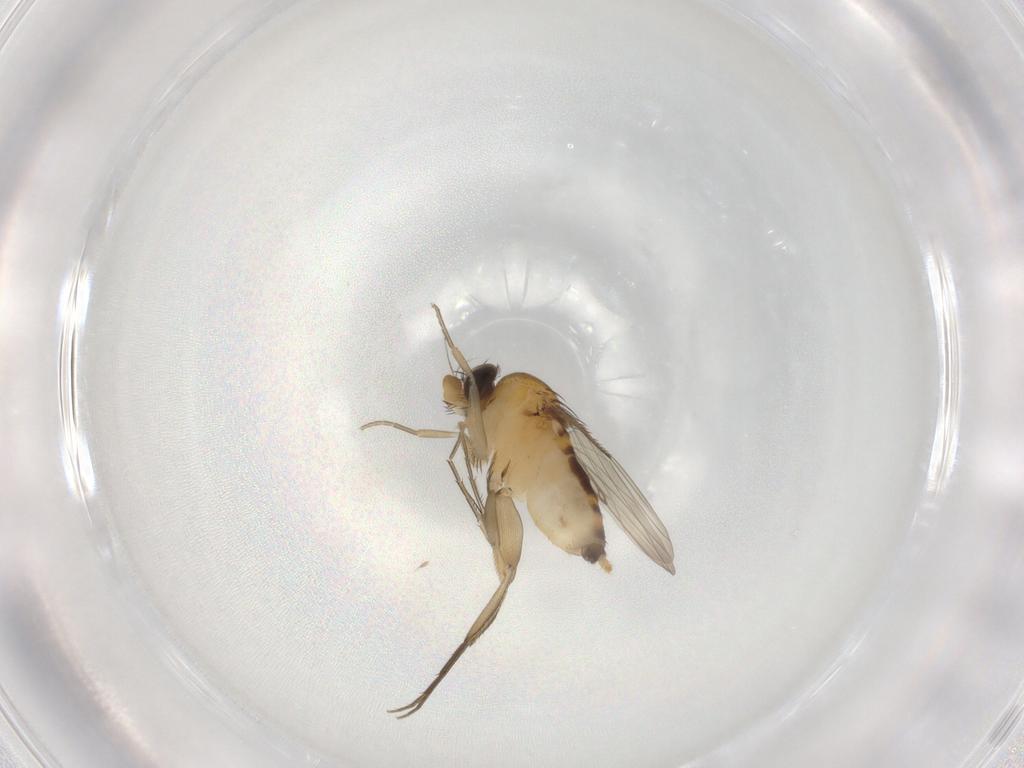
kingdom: Animalia
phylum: Arthropoda
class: Insecta
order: Diptera
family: Phoridae
